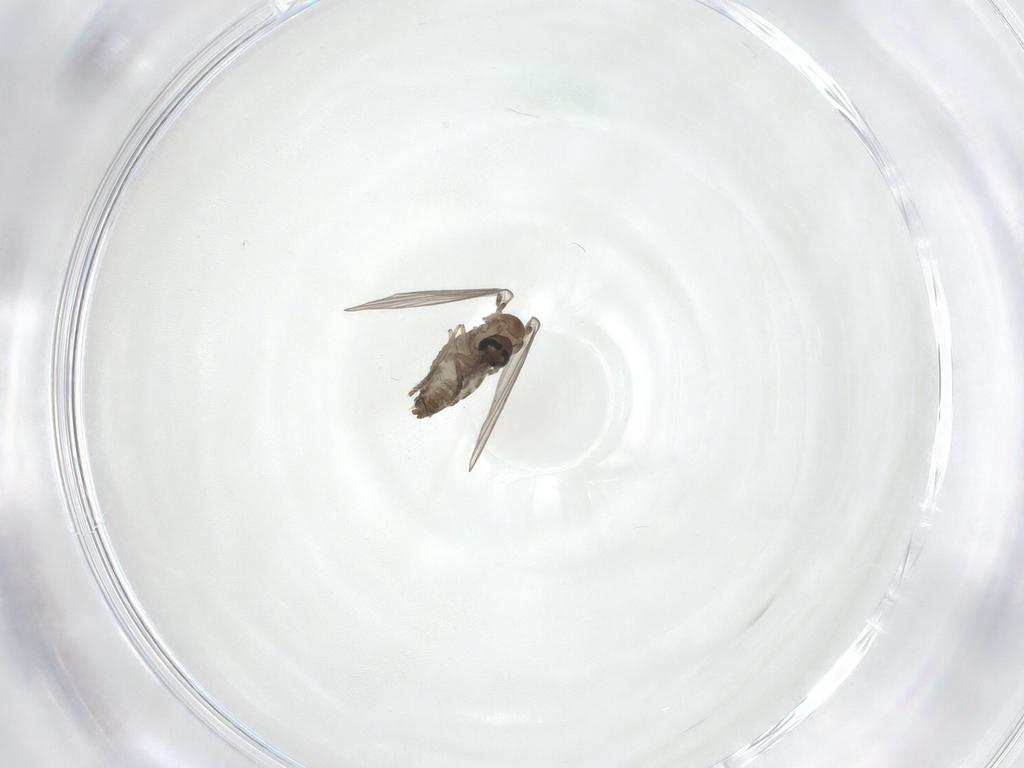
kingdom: Animalia
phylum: Arthropoda
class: Insecta
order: Diptera
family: Psychodidae
